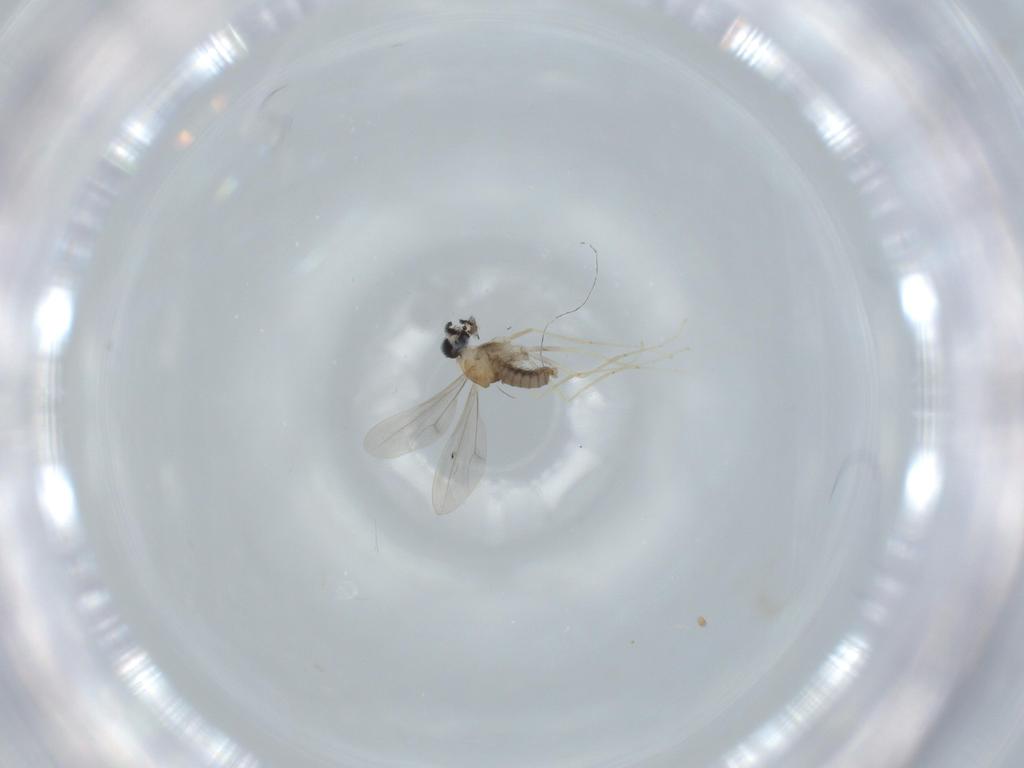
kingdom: Animalia
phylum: Arthropoda
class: Insecta
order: Diptera
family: Cecidomyiidae
